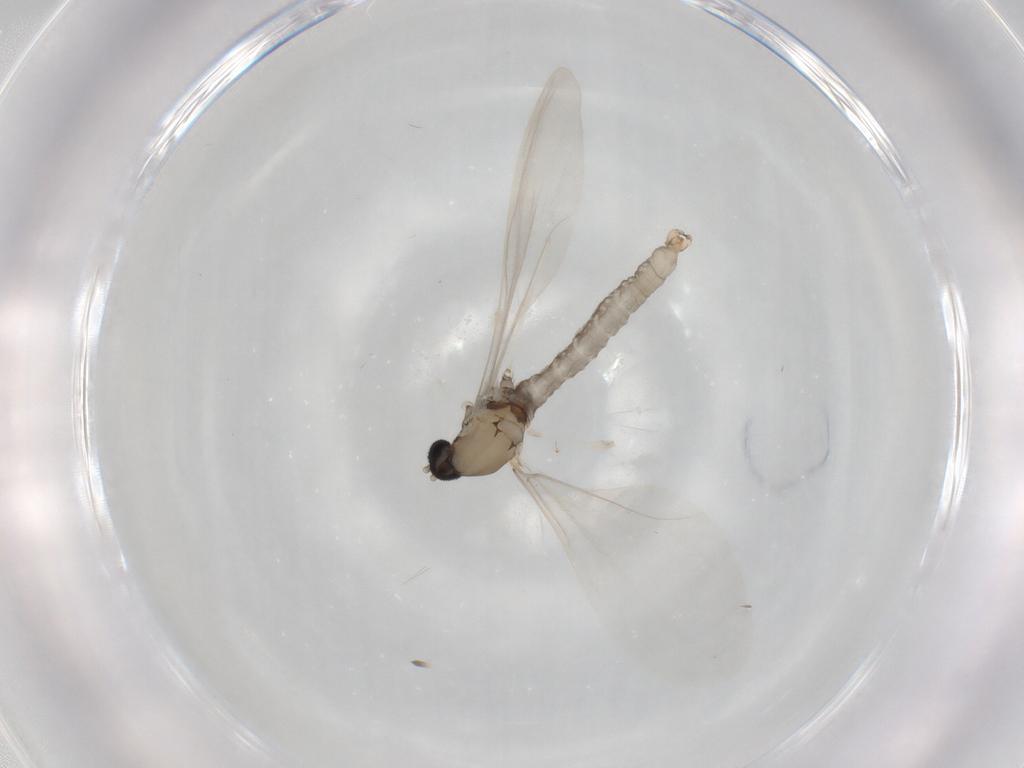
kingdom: Animalia
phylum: Arthropoda
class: Insecta
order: Diptera
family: Cecidomyiidae
